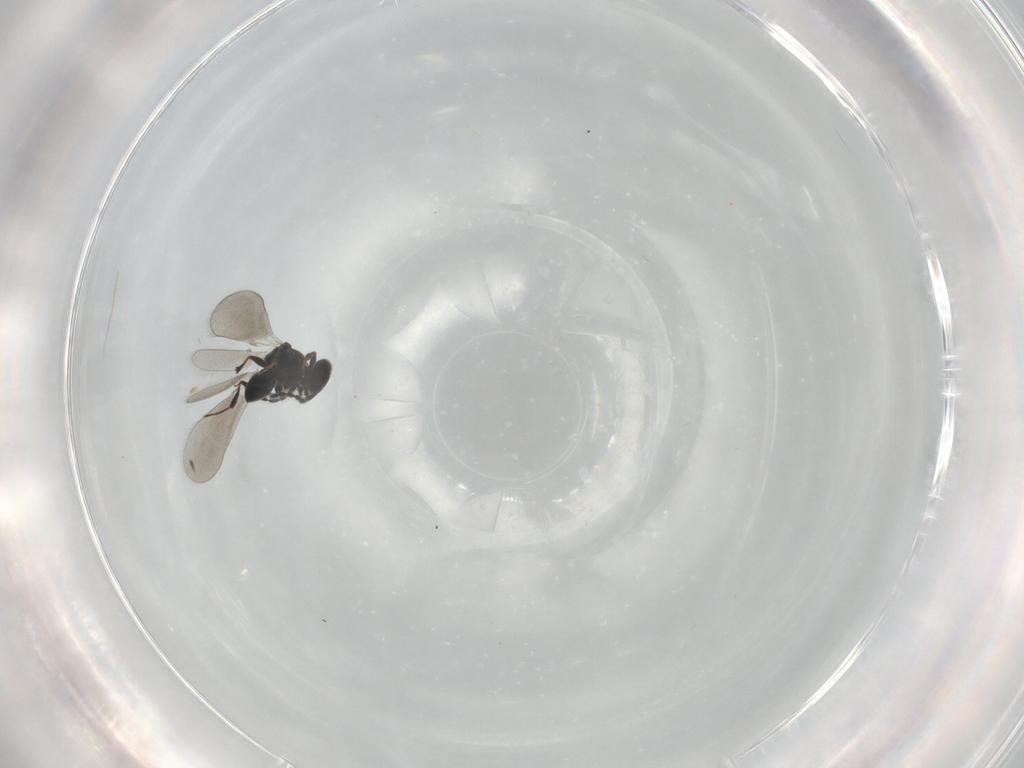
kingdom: Animalia
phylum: Arthropoda
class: Insecta
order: Hymenoptera
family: Platygastridae
